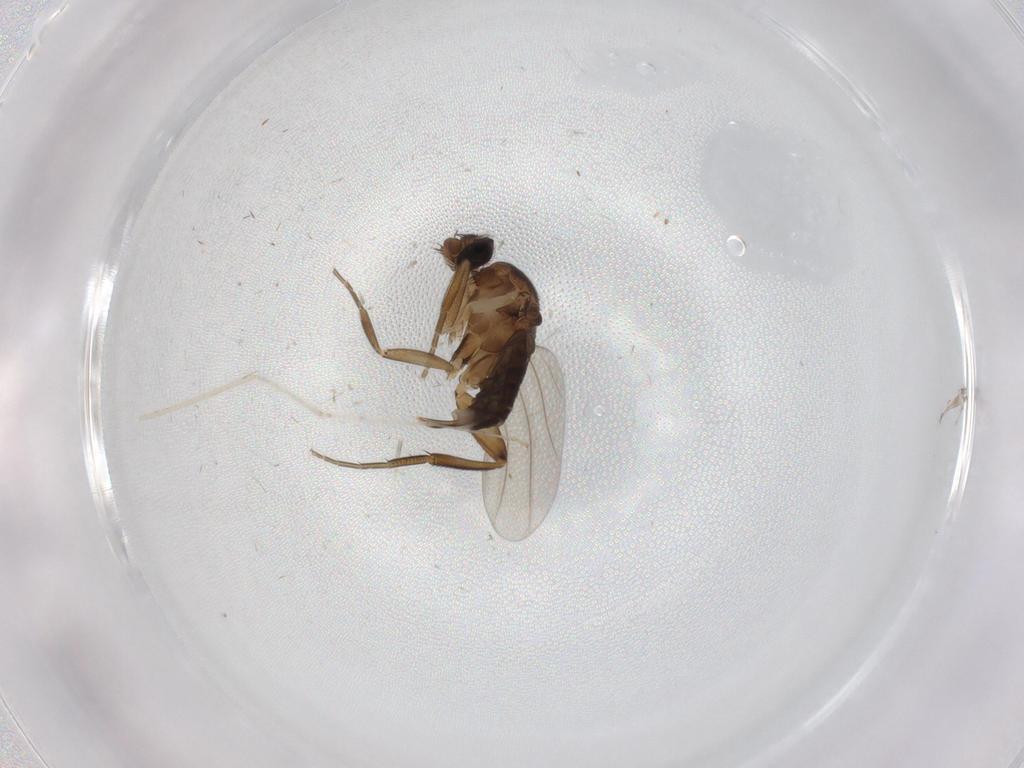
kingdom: Animalia
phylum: Arthropoda
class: Insecta
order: Diptera
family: Phoridae
